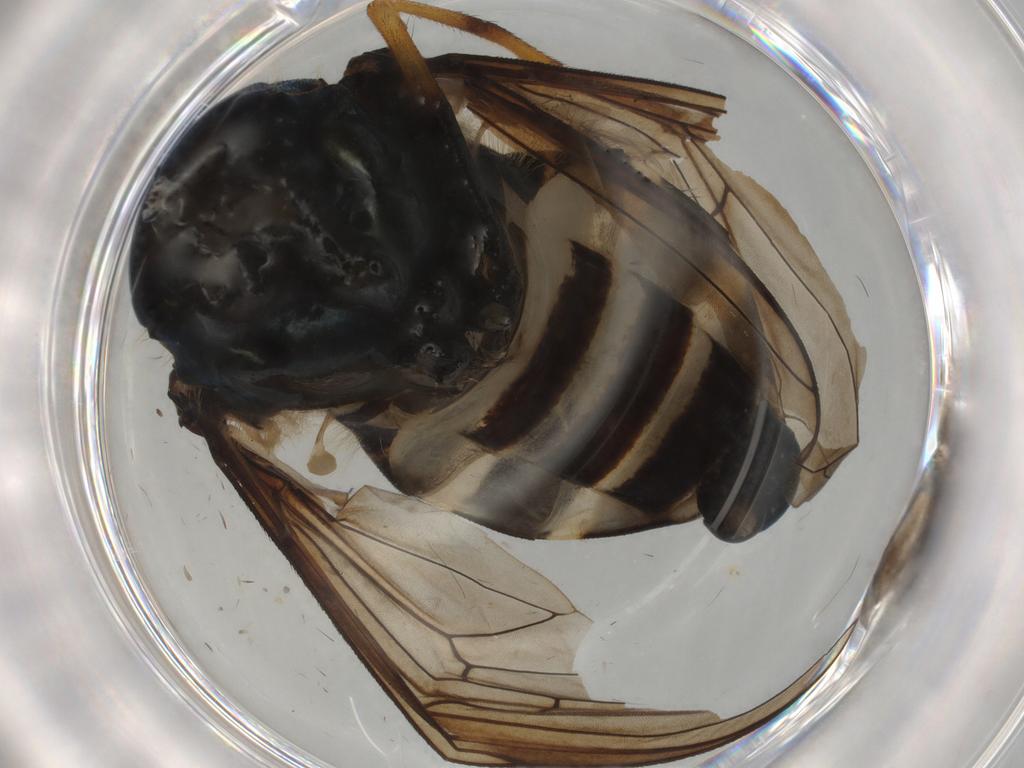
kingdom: Animalia
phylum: Arthropoda
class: Insecta
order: Diptera
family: Syrphidae
